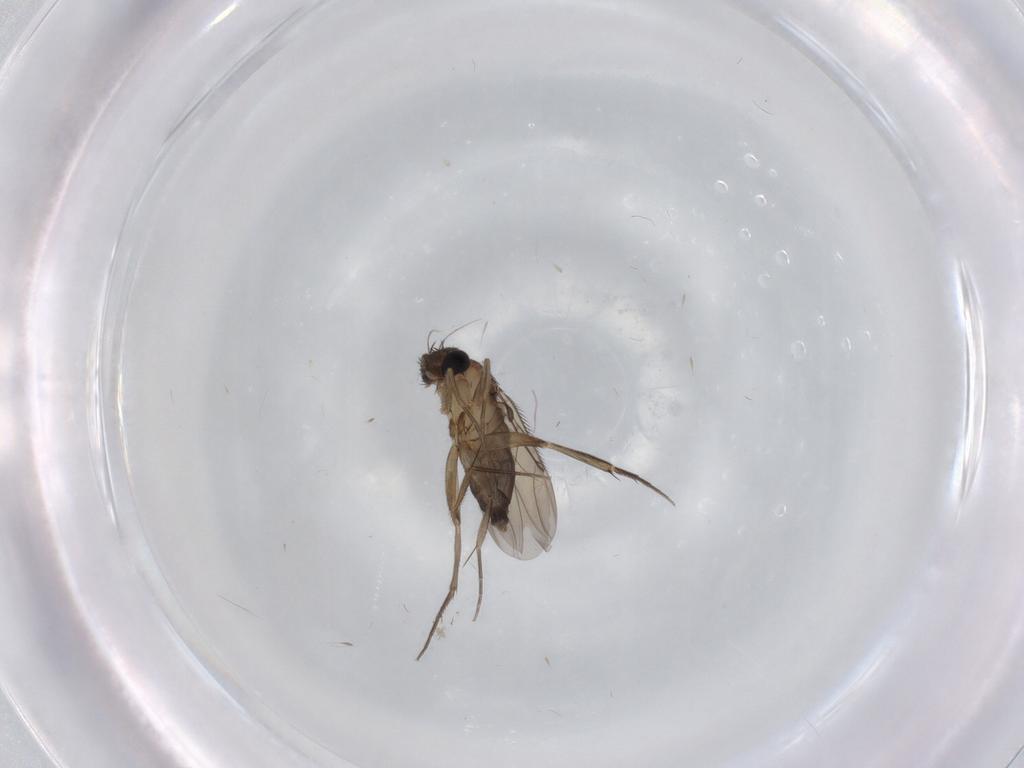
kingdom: Animalia
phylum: Arthropoda
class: Insecta
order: Diptera
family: Phoridae
